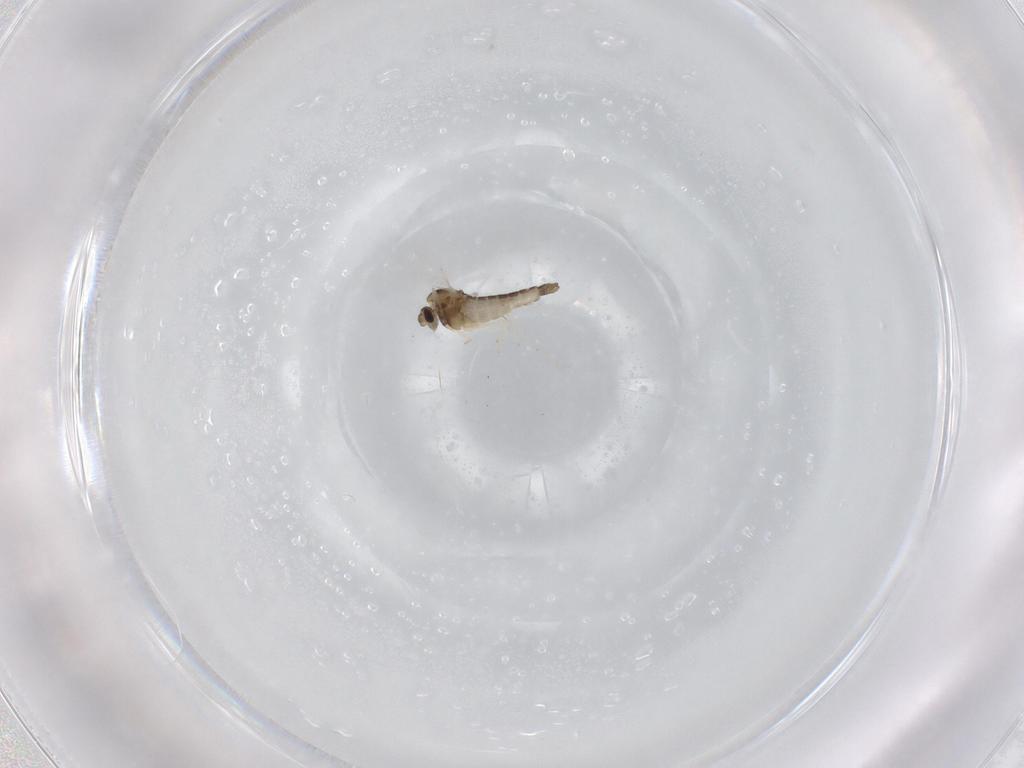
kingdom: Animalia
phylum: Arthropoda
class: Insecta
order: Diptera
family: Chironomidae
